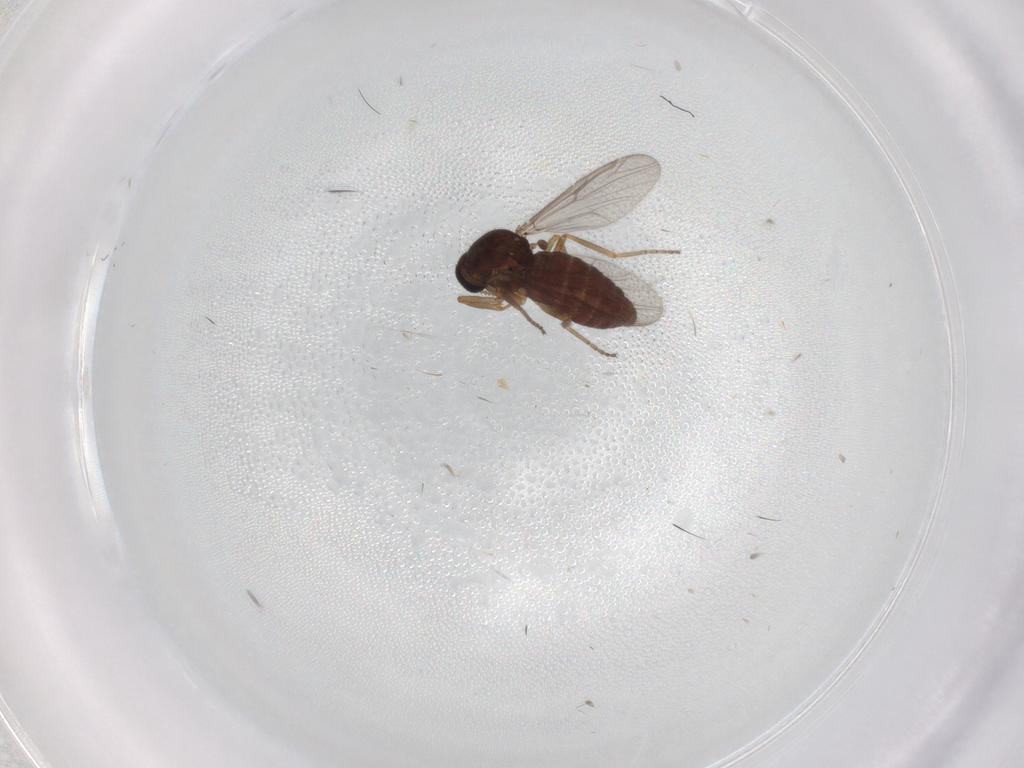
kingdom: Animalia
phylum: Arthropoda
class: Insecta
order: Diptera
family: Ceratopogonidae
